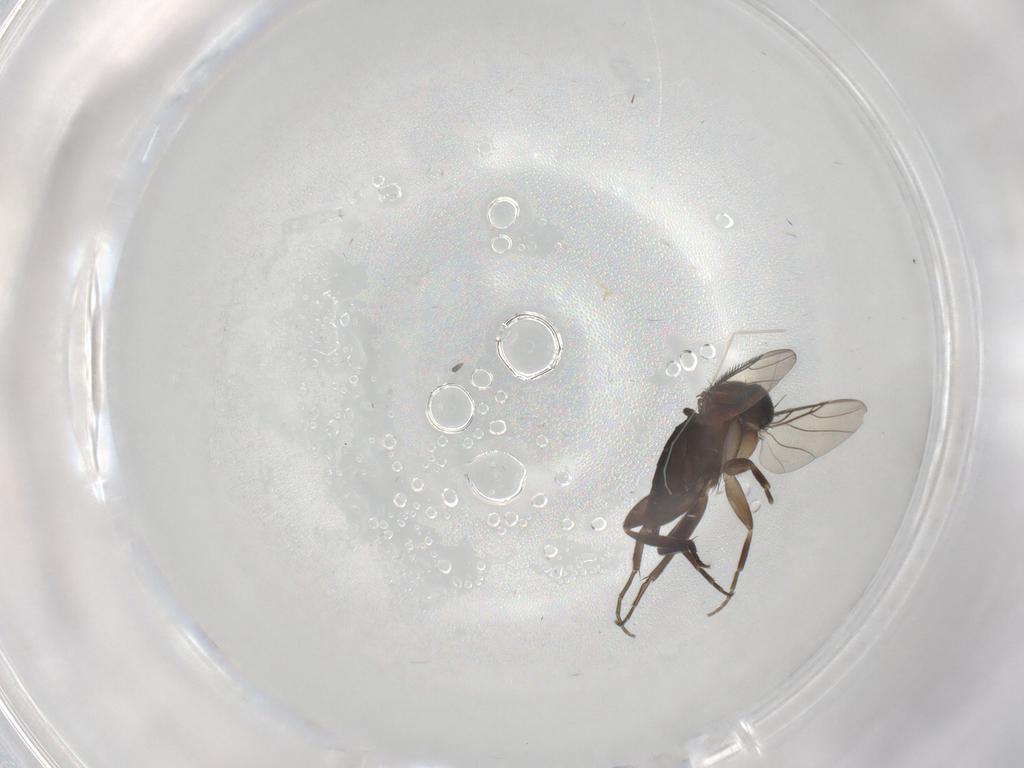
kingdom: Animalia
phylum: Arthropoda
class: Insecta
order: Diptera
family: Phoridae
